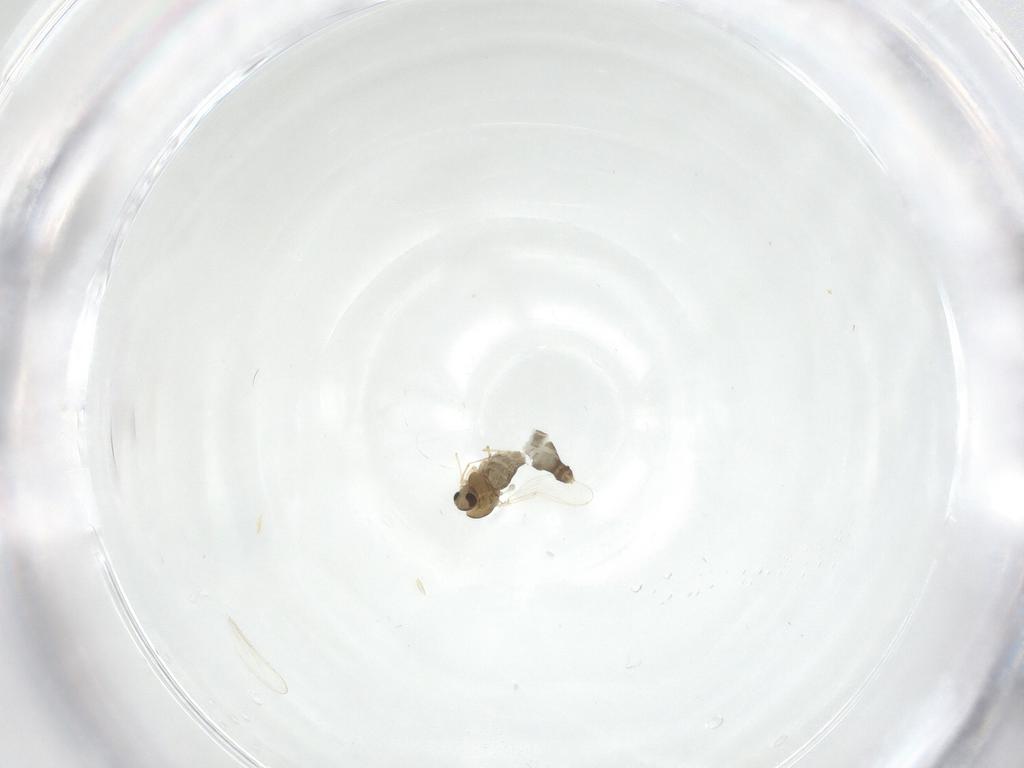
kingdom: Animalia
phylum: Arthropoda
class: Insecta
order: Diptera
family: Chironomidae
